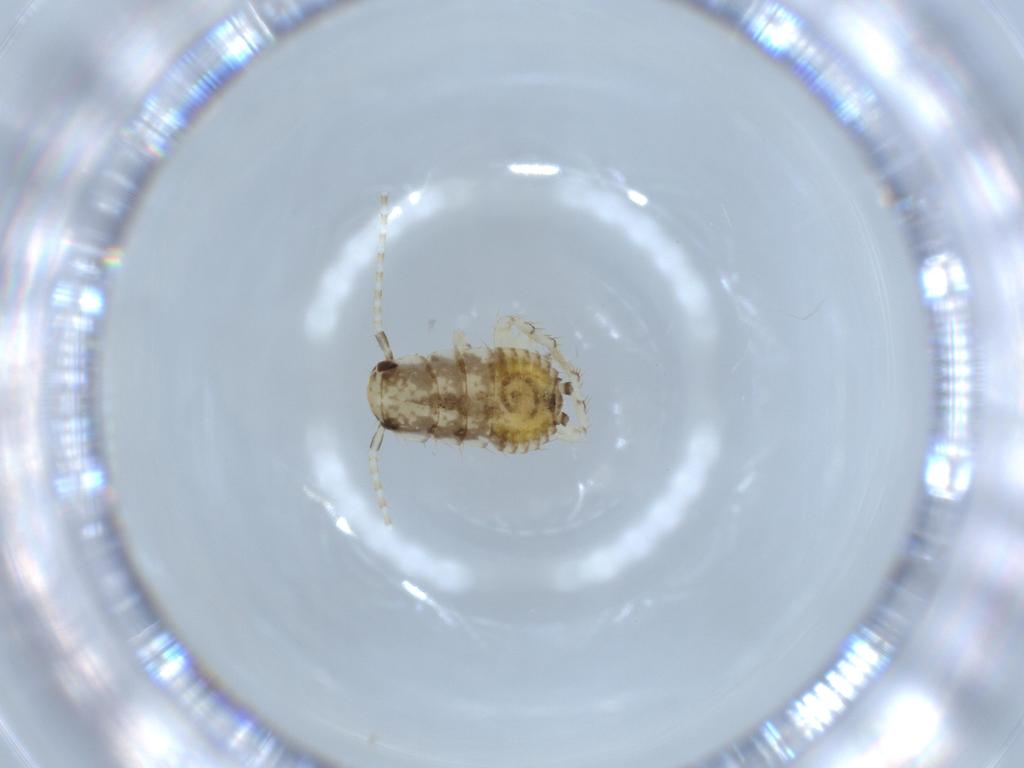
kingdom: Animalia
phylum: Arthropoda
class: Insecta
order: Blattodea
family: Ectobiidae
